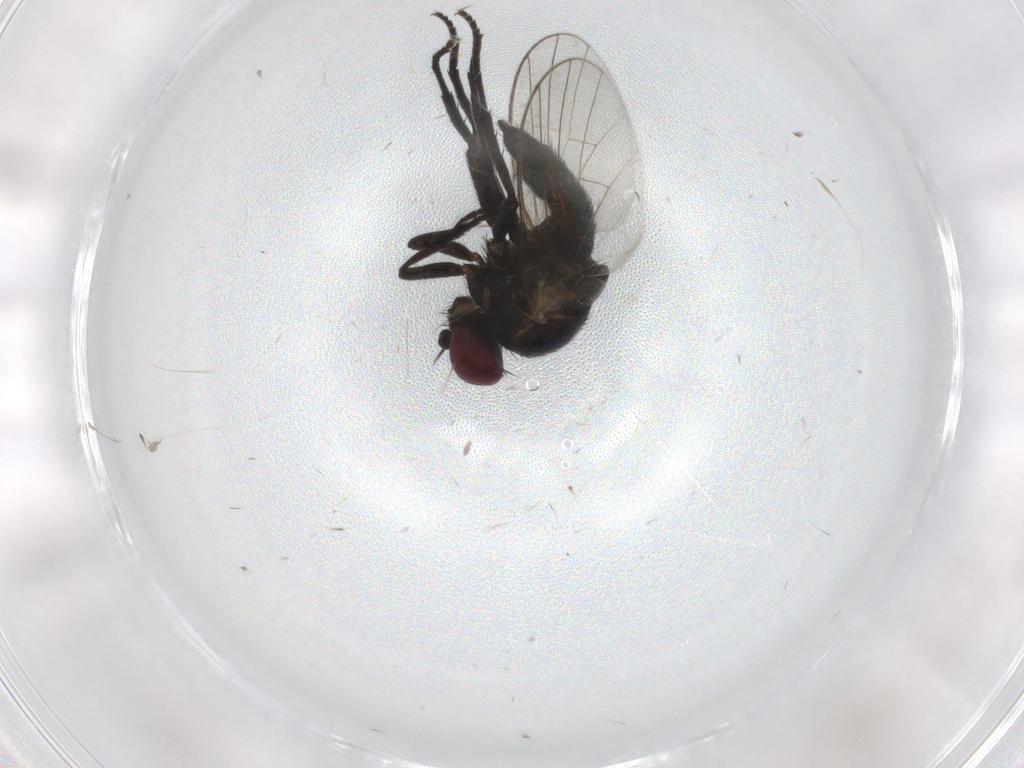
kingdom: Animalia
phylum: Arthropoda
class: Insecta
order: Diptera
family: Agromyzidae
